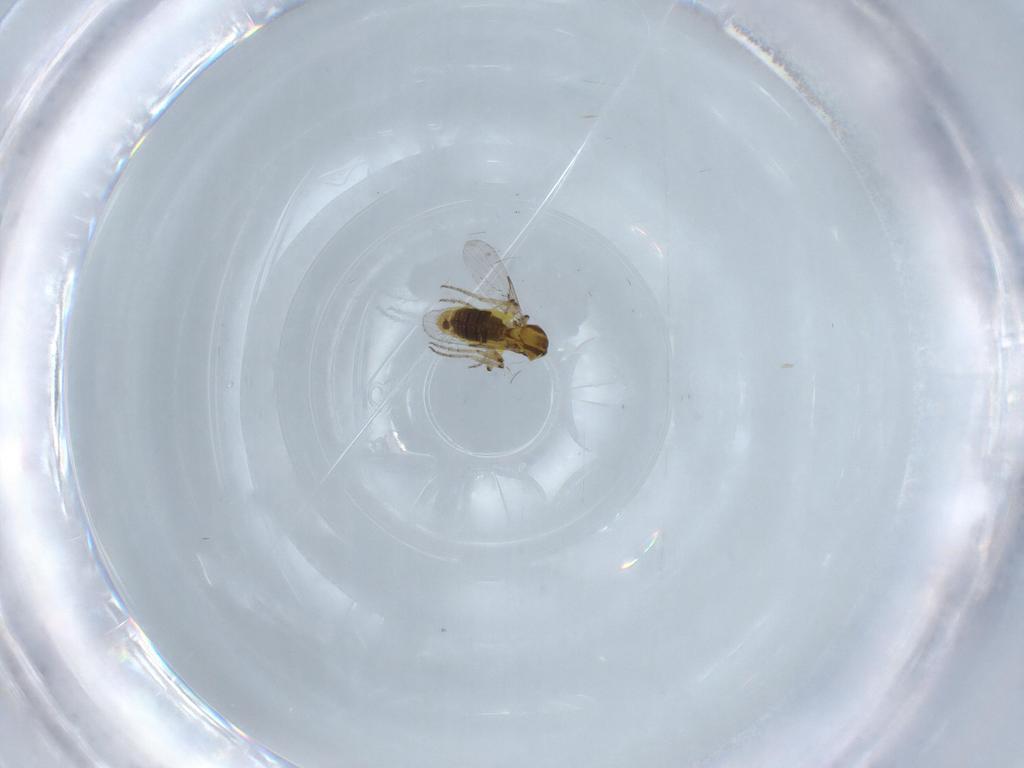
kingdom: Animalia
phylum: Arthropoda
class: Insecta
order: Diptera
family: Ceratopogonidae
